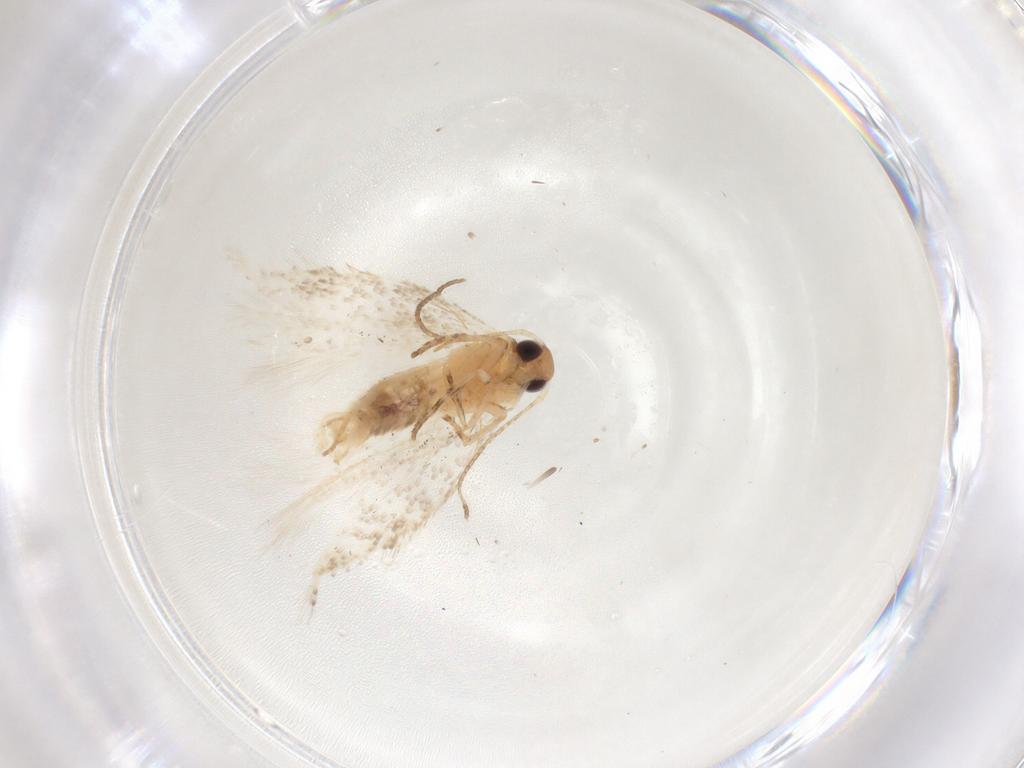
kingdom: Animalia
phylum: Arthropoda
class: Insecta
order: Lepidoptera
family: Gelechiidae
